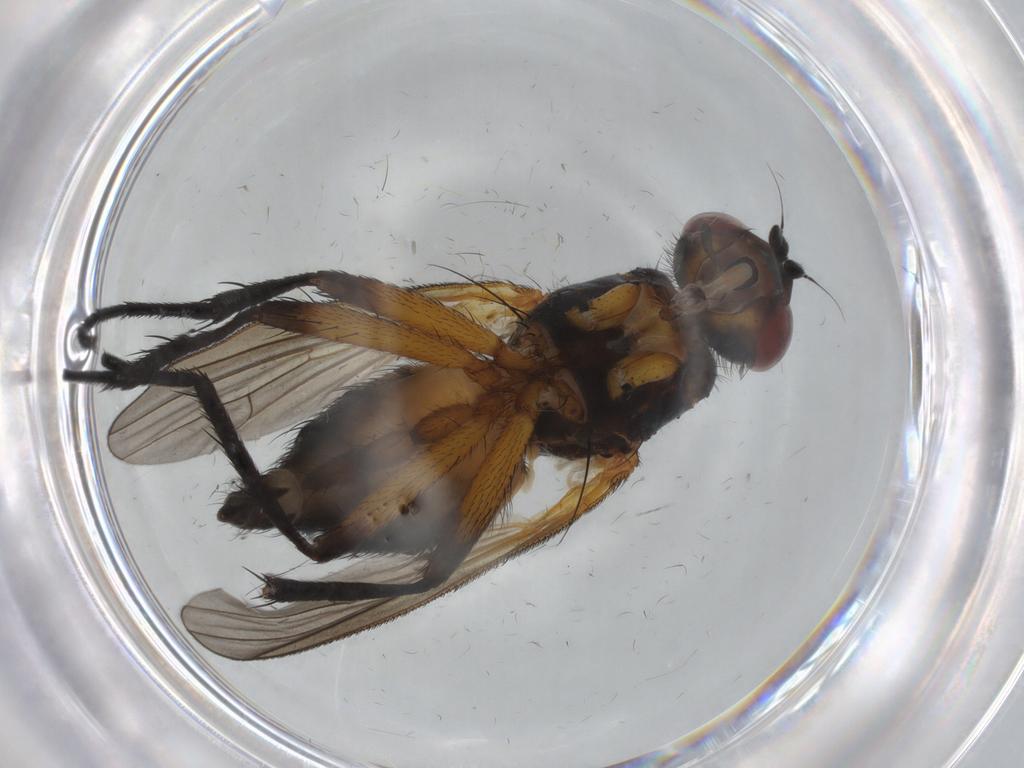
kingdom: Animalia
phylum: Arthropoda
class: Insecta
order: Diptera
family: Anthomyiidae
